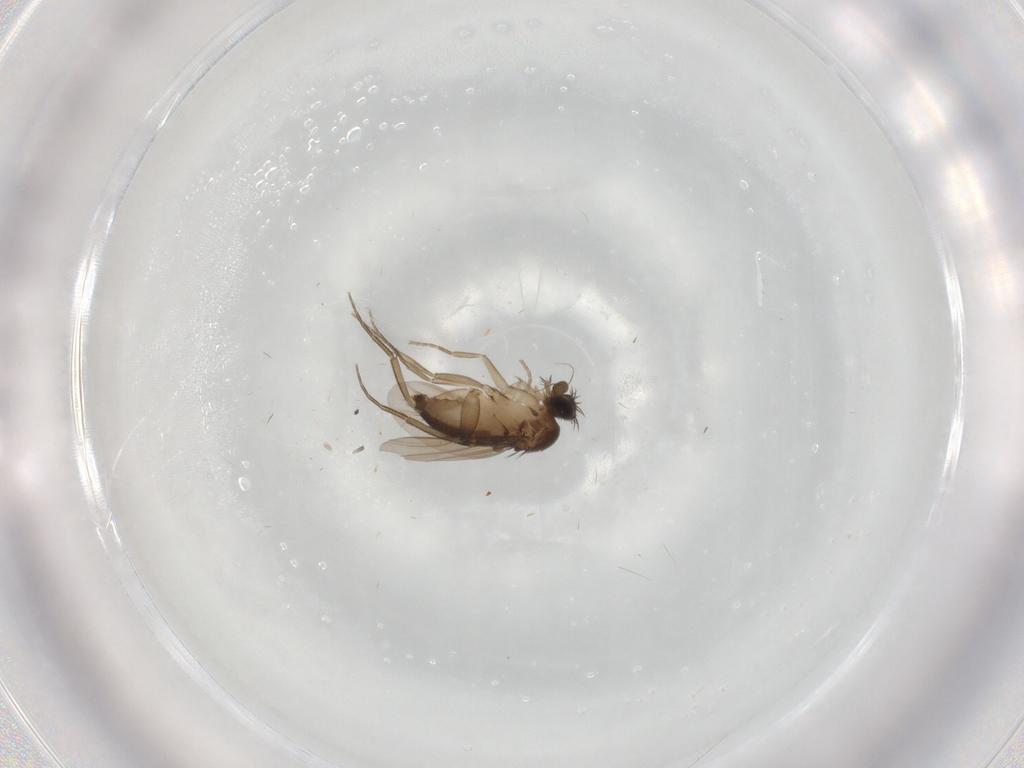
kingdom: Animalia
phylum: Arthropoda
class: Insecta
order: Diptera
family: Phoridae
